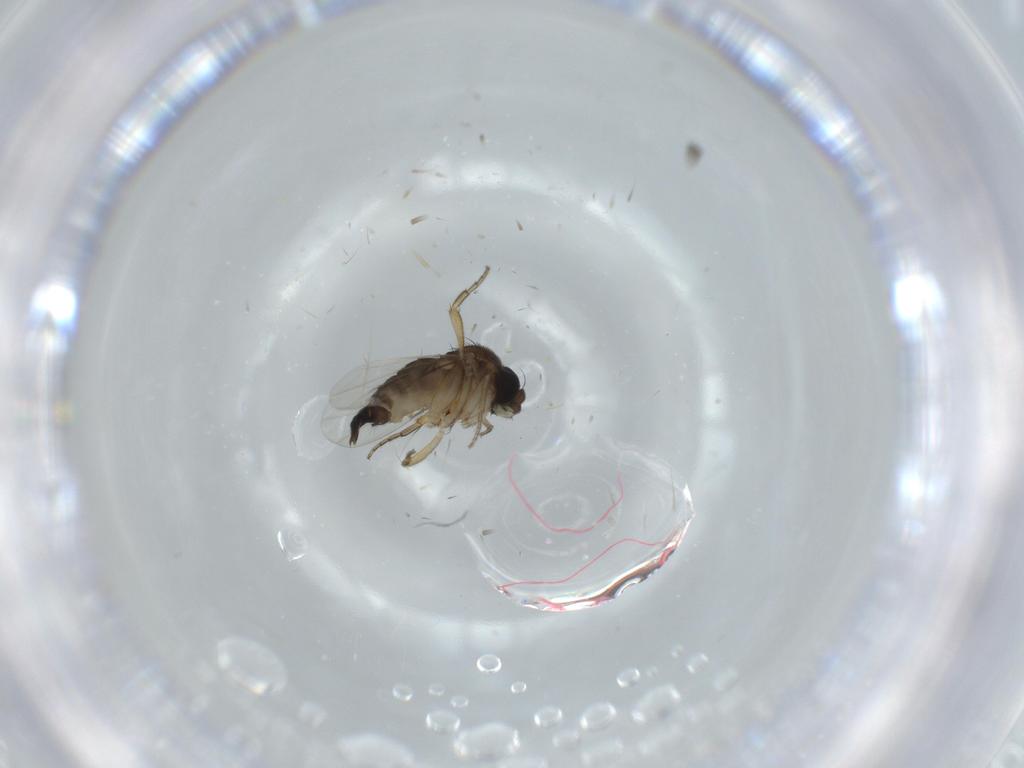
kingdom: Animalia
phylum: Arthropoda
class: Insecta
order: Diptera
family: Phoridae
